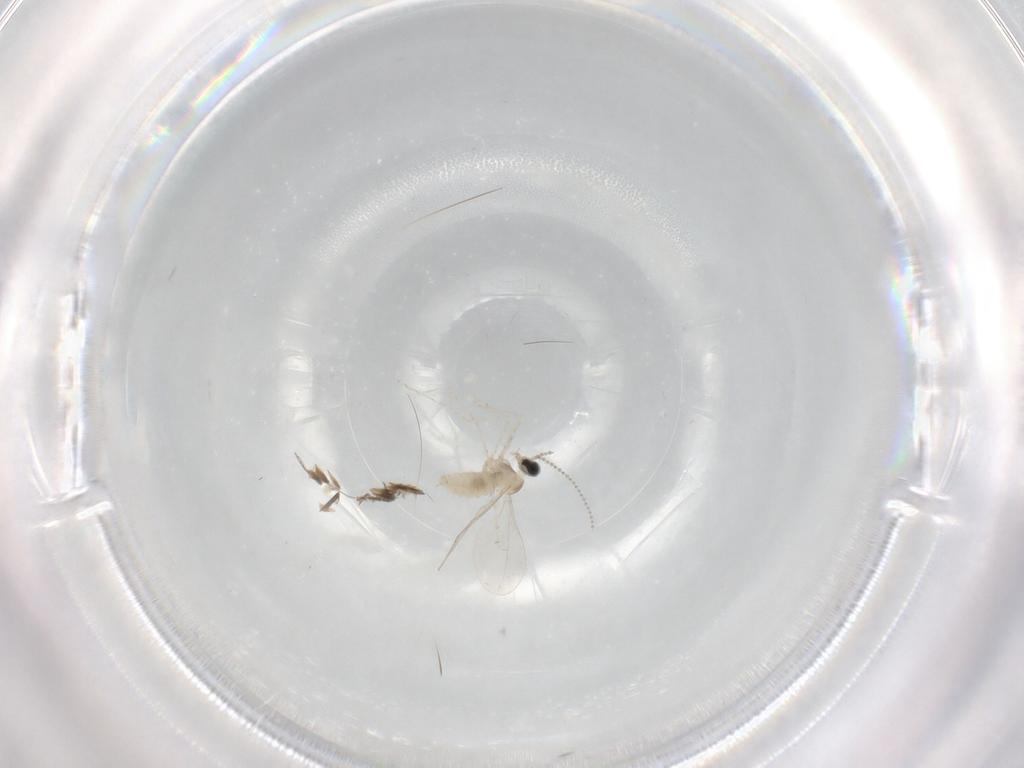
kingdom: Animalia
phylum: Arthropoda
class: Insecta
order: Diptera
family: Cecidomyiidae
